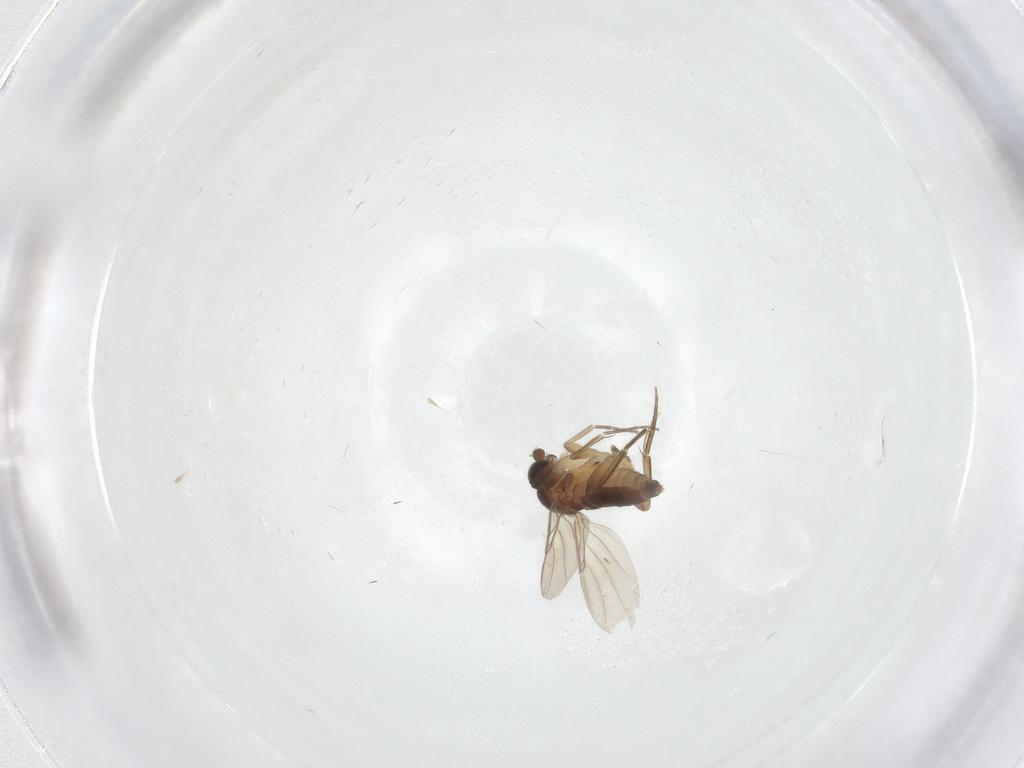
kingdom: Animalia
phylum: Arthropoda
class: Insecta
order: Diptera
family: Phoridae
